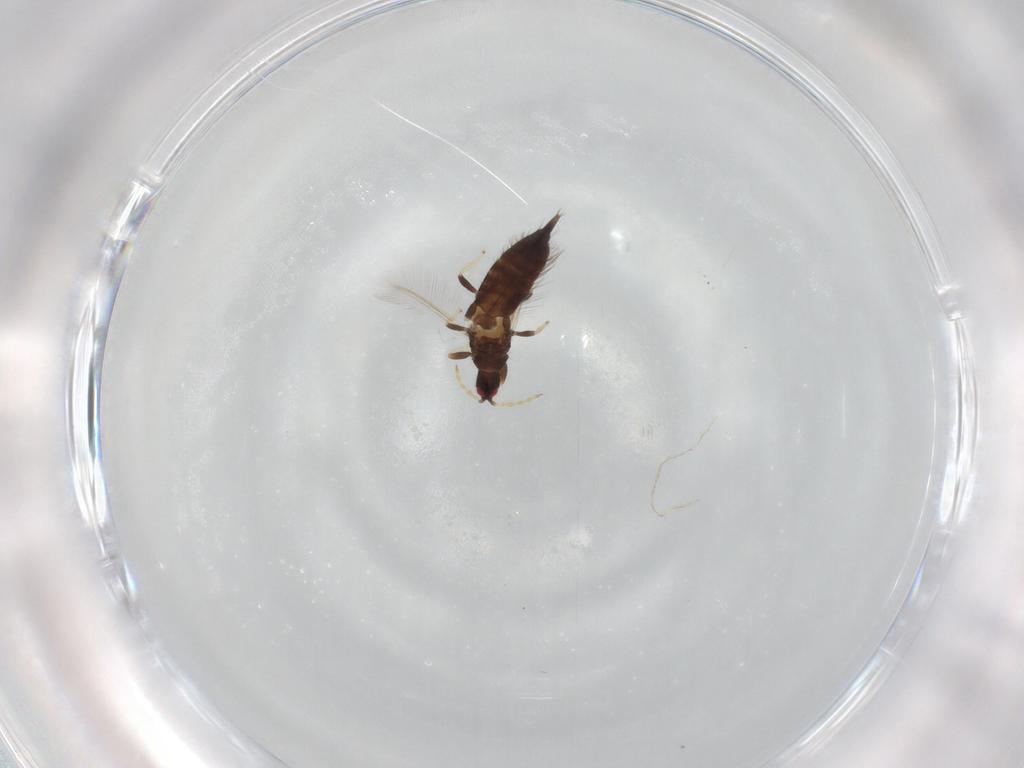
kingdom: Animalia
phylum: Arthropoda
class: Insecta
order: Thysanoptera
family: Phlaeothripidae
